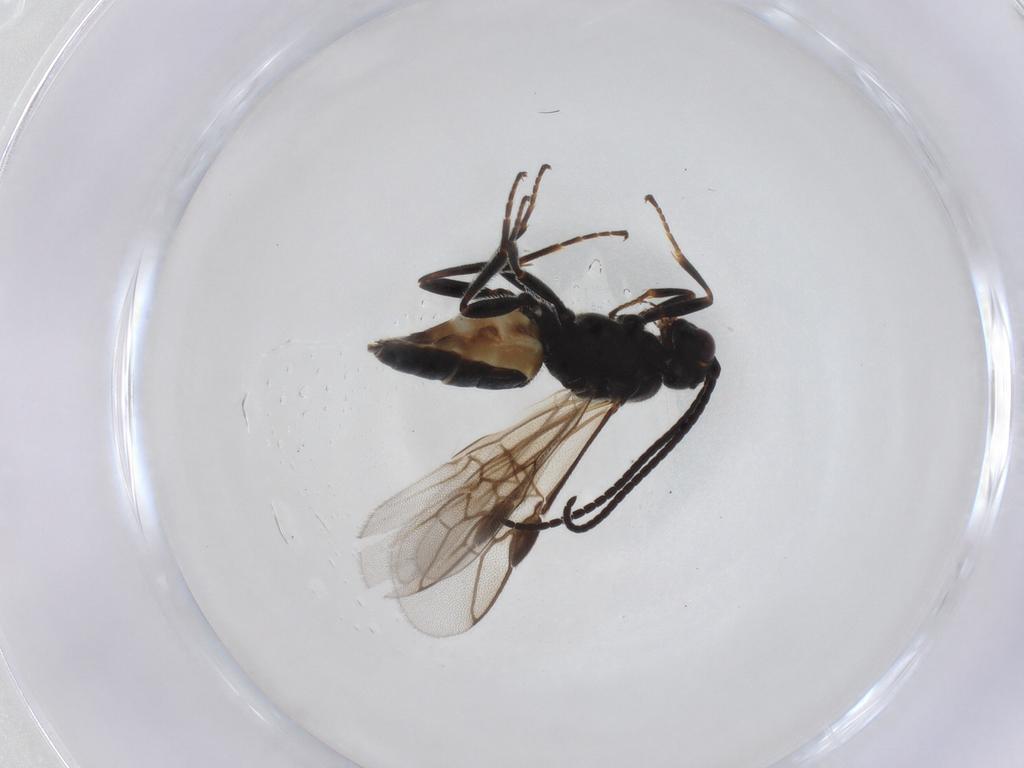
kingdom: Animalia
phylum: Arthropoda
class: Insecta
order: Hymenoptera
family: Braconidae
